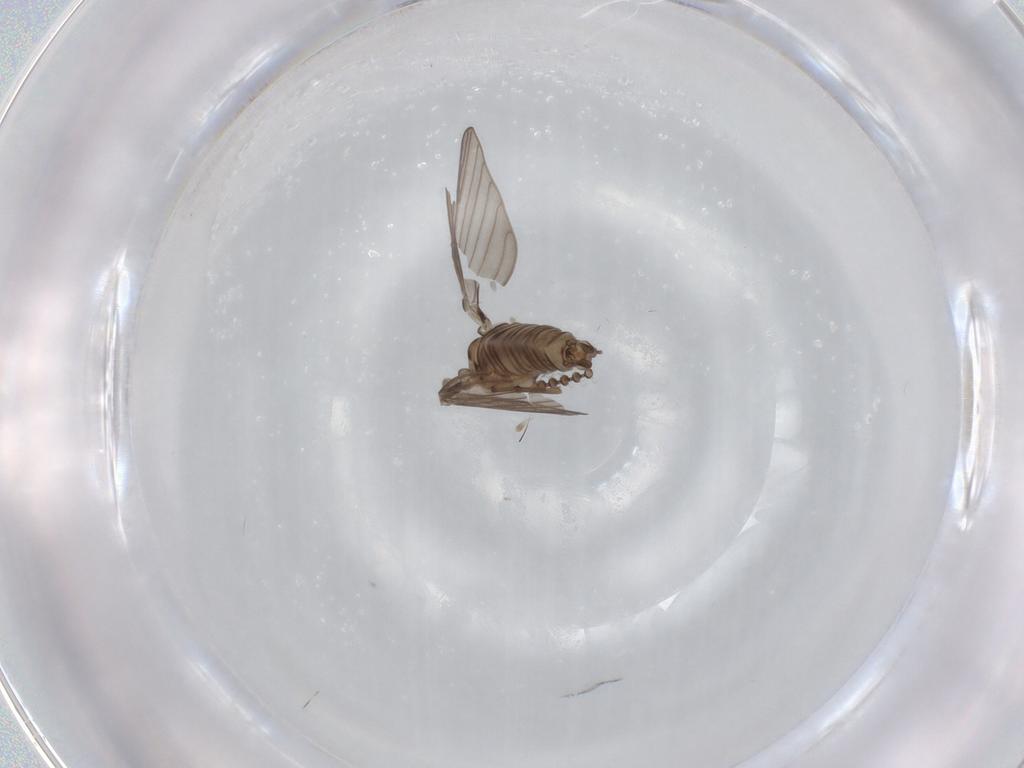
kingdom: Animalia
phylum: Arthropoda
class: Insecta
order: Diptera
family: Psychodidae
